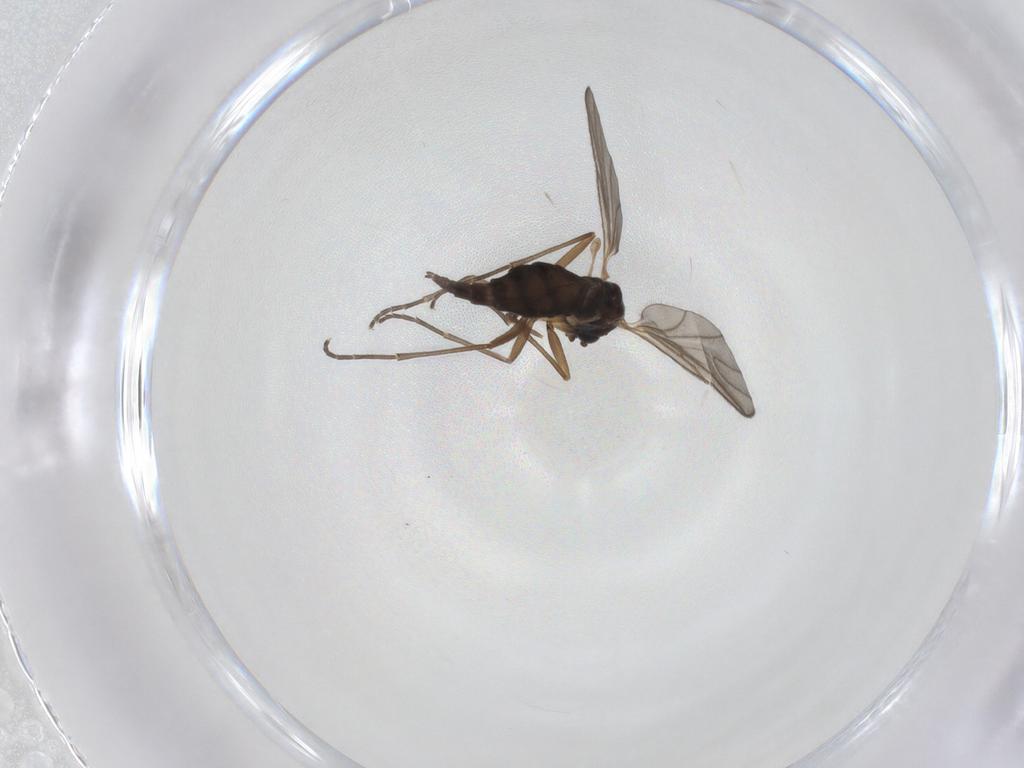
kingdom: Animalia
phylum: Arthropoda
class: Insecta
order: Diptera
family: Chironomidae
